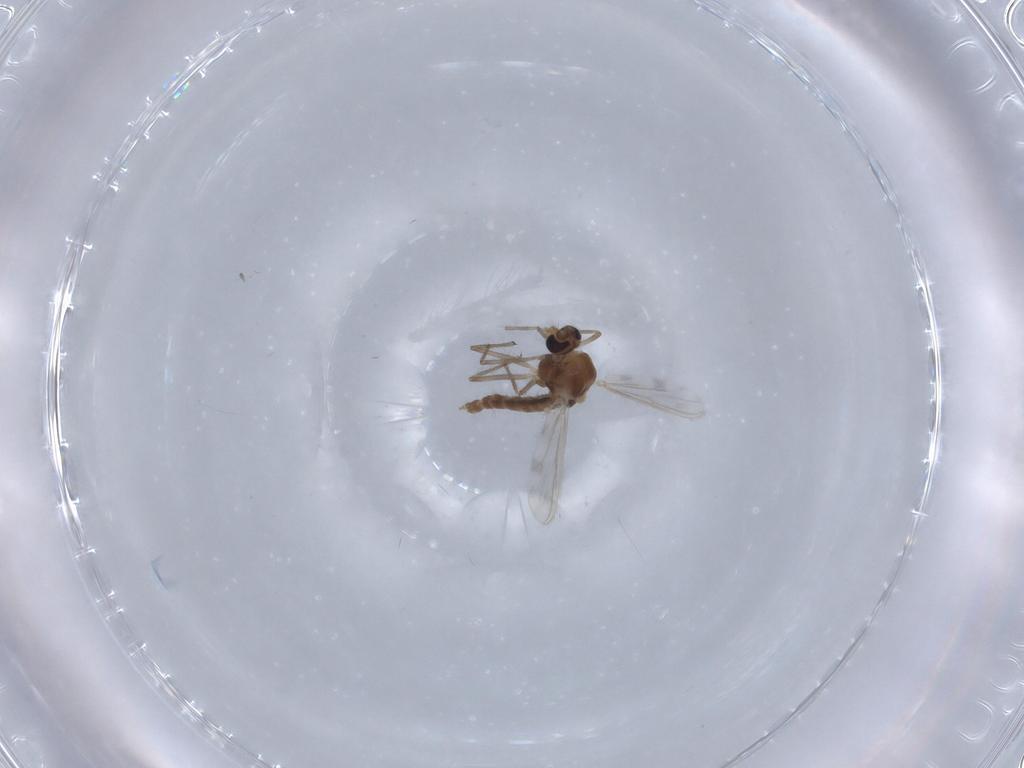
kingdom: Animalia
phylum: Arthropoda
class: Insecta
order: Diptera
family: Chironomidae
